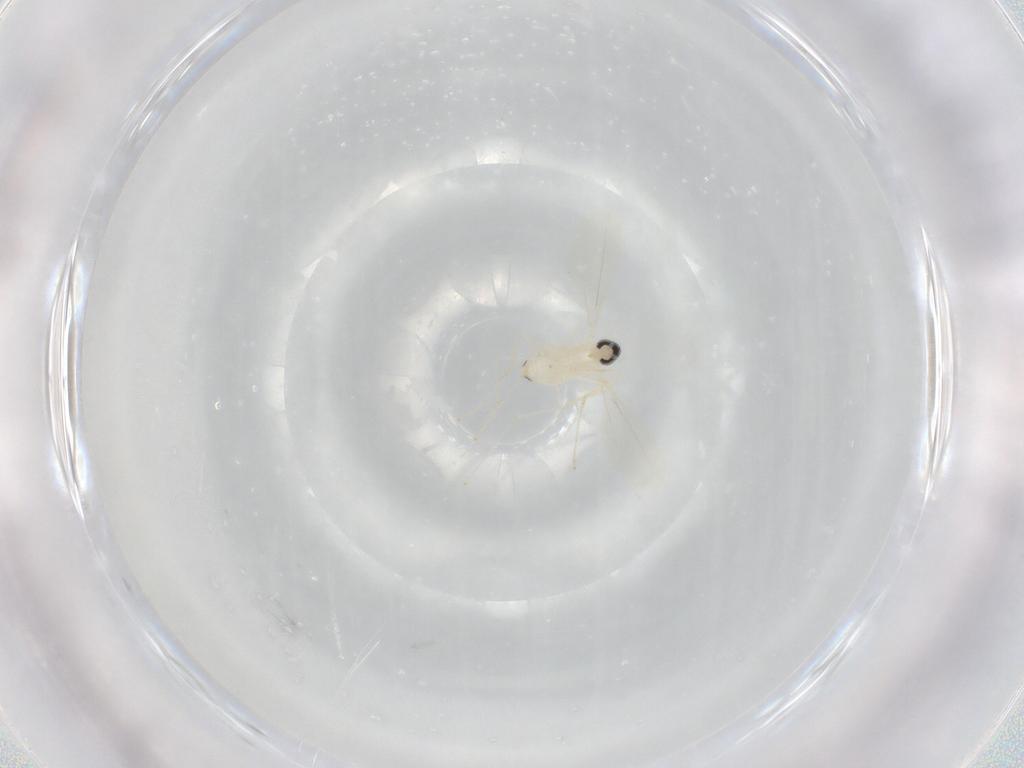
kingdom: Animalia
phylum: Arthropoda
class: Insecta
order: Diptera
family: Cecidomyiidae
